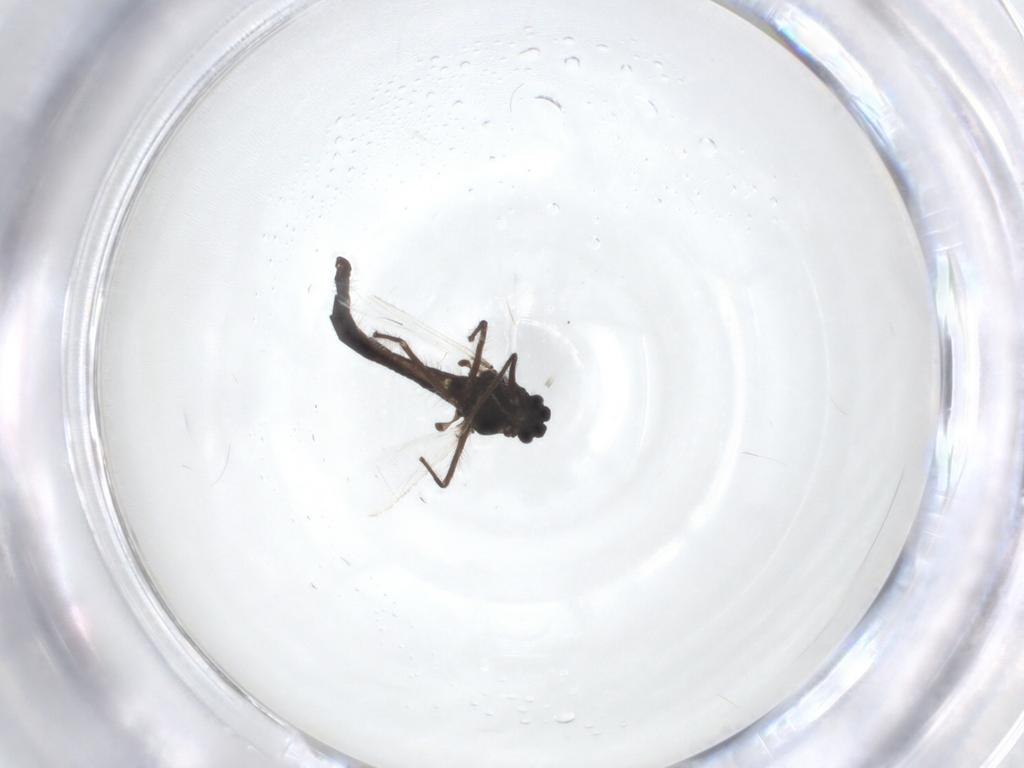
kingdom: Animalia
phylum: Arthropoda
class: Insecta
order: Diptera
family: Chironomidae
